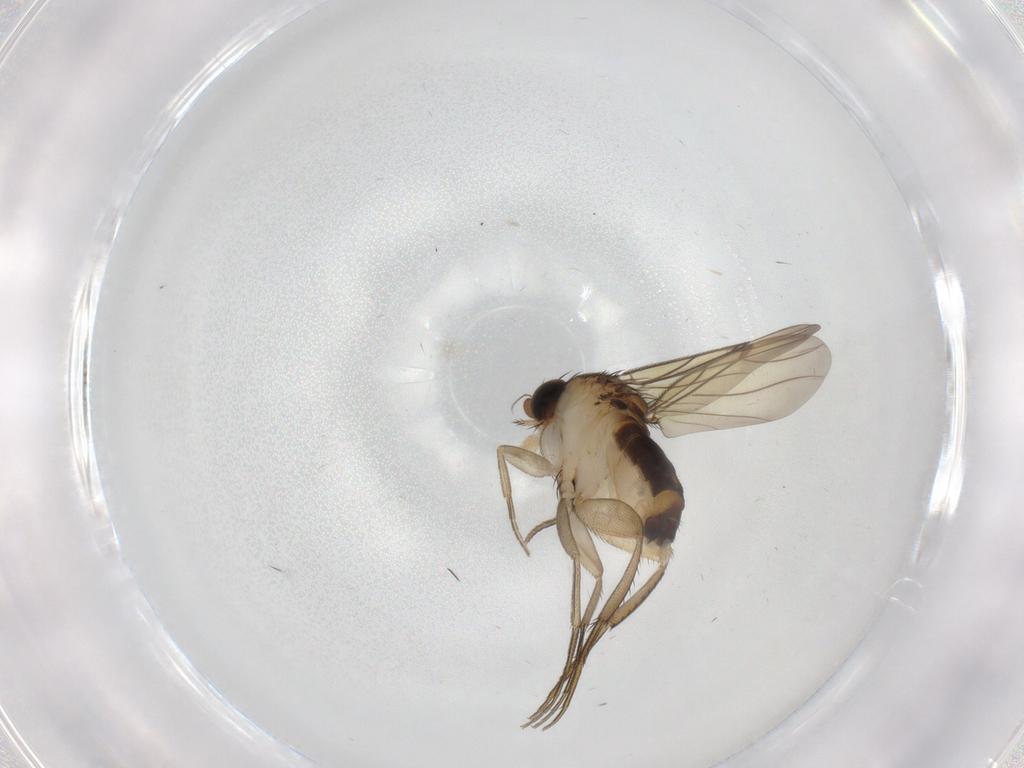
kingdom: Animalia
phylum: Arthropoda
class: Insecta
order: Diptera
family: Sciaridae
